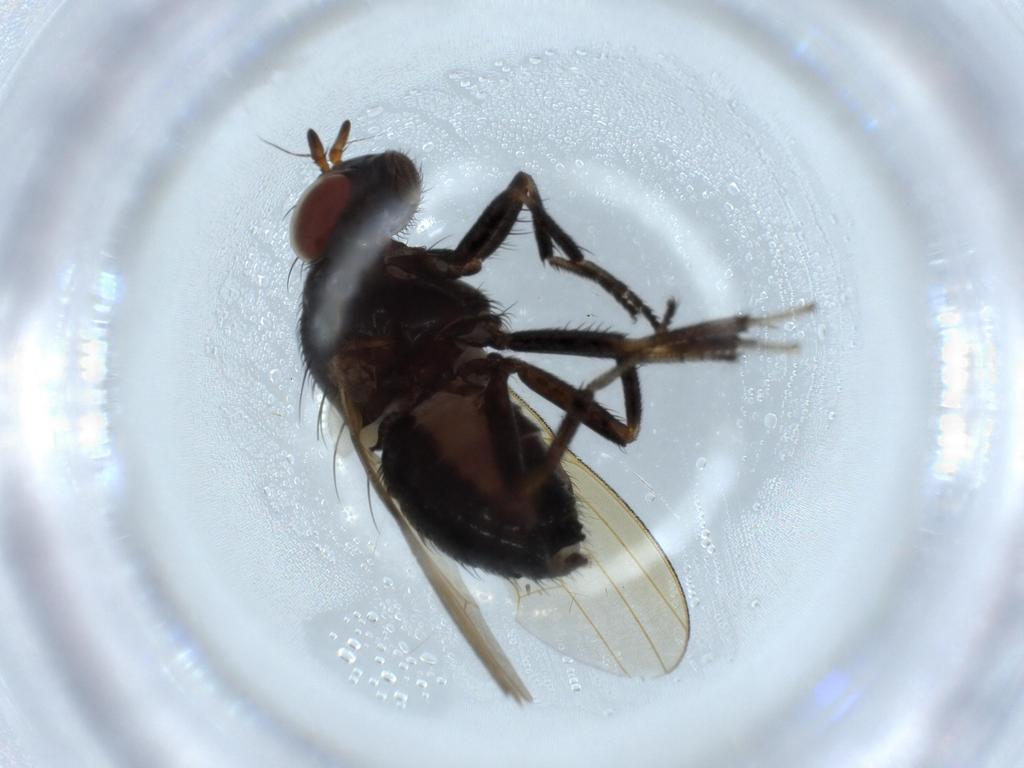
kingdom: Animalia
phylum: Arthropoda
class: Insecta
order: Diptera
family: Lauxaniidae
